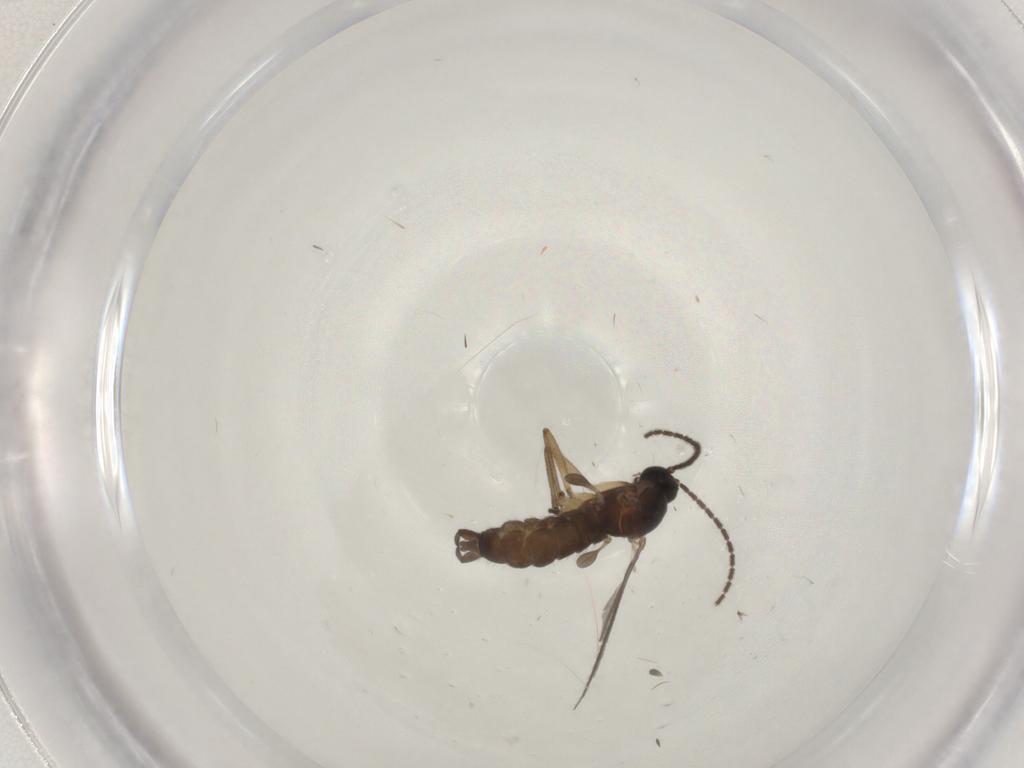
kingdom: Animalia
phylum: Arthropoda
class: Insecta
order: Diptera
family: Sciaridae
